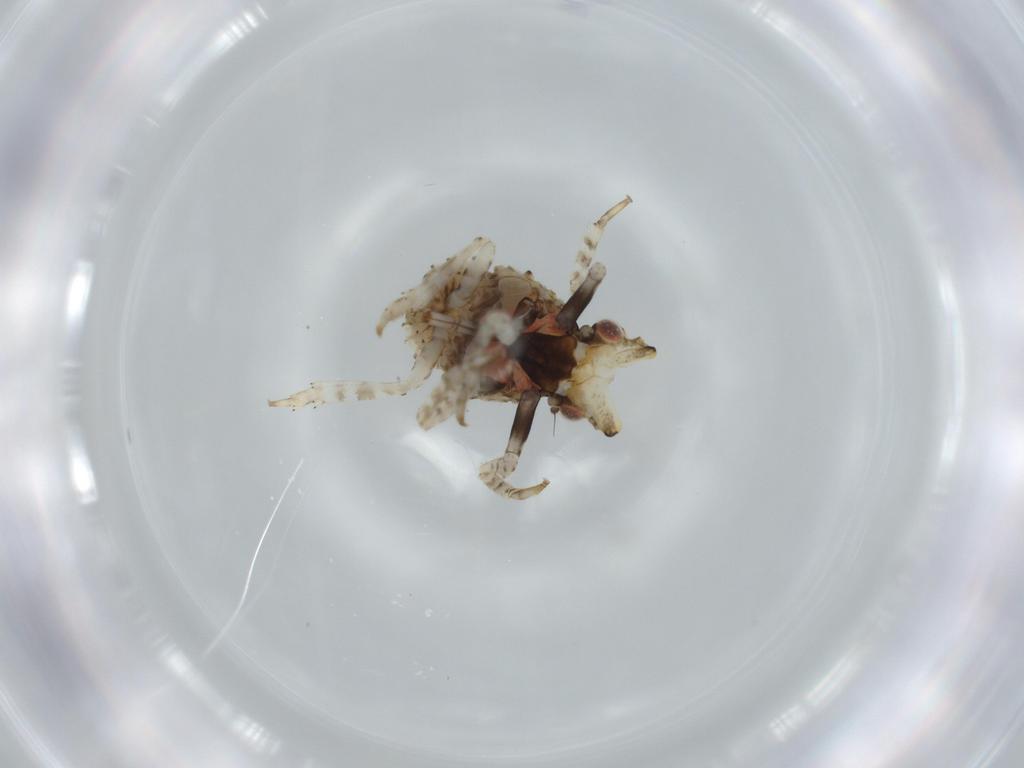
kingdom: Animalia
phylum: Arthropoda
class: Insecta
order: Hemiptera
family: Fulgoridae
